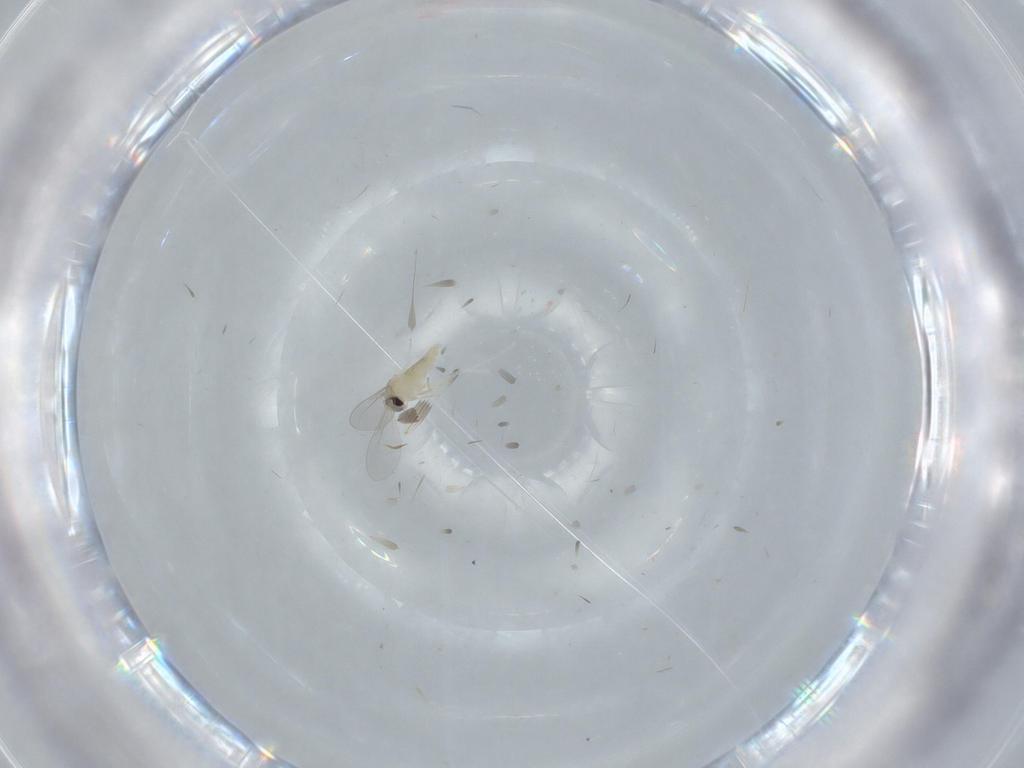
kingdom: Animalia
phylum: Arthropoda
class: Insecta
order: Diptera
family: Cecidomyiidae
